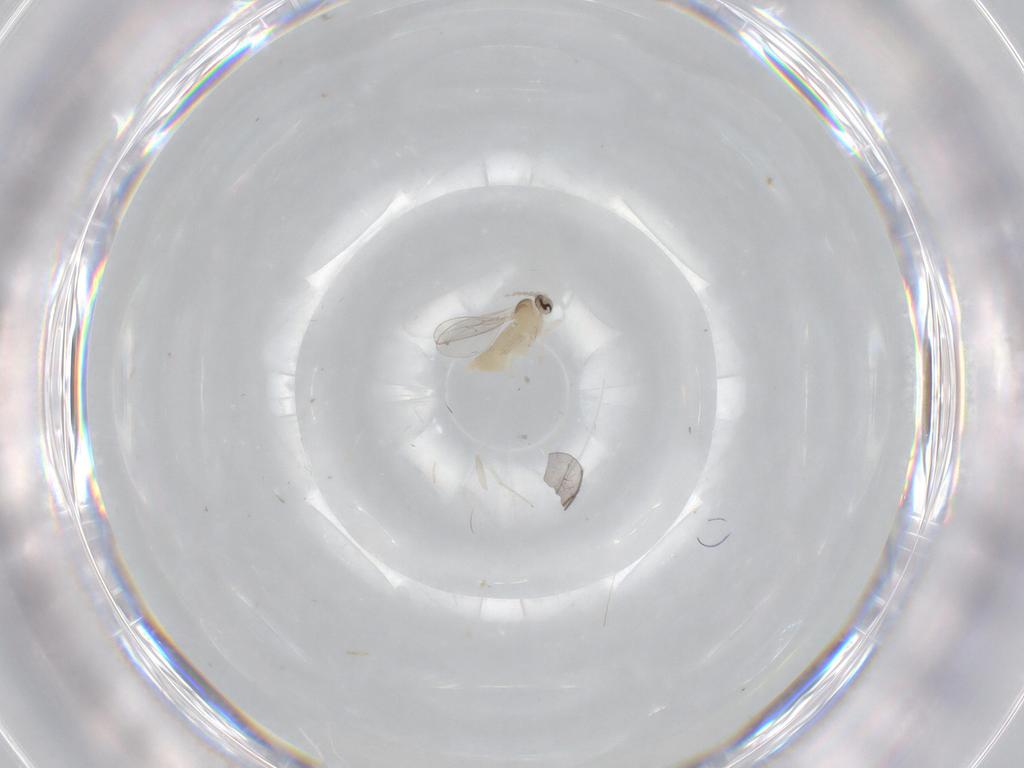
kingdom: Animalia
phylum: Arthropoda
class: Insecta
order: Diptera
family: Cecidomyiidae
